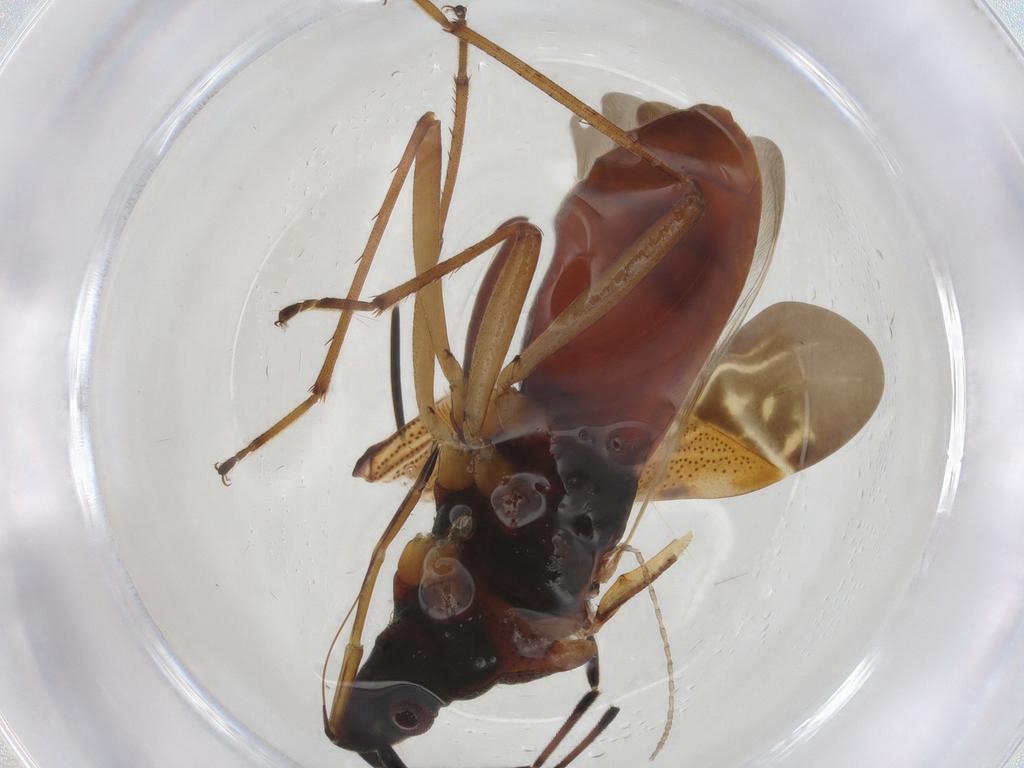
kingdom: Animalia
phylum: Arthropoda
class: Insecta
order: Hemiptera
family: Rhyparochromidae
